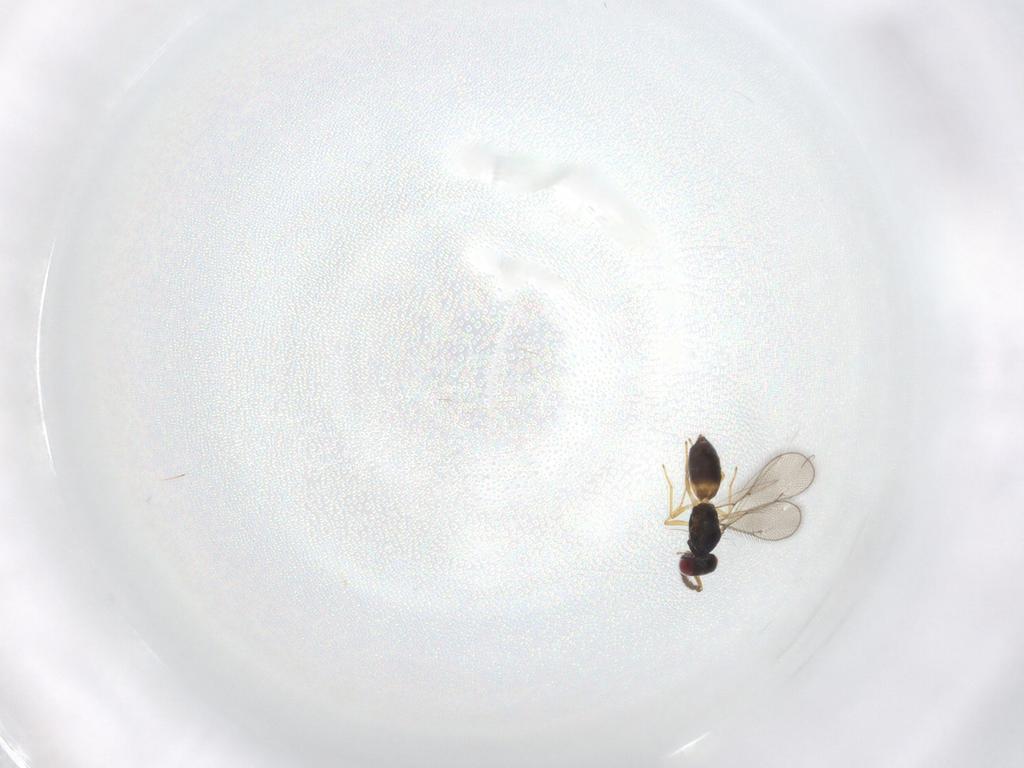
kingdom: Animalia
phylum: Arthropoda
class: Insecta
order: Hymenoptera
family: Eulophidae
